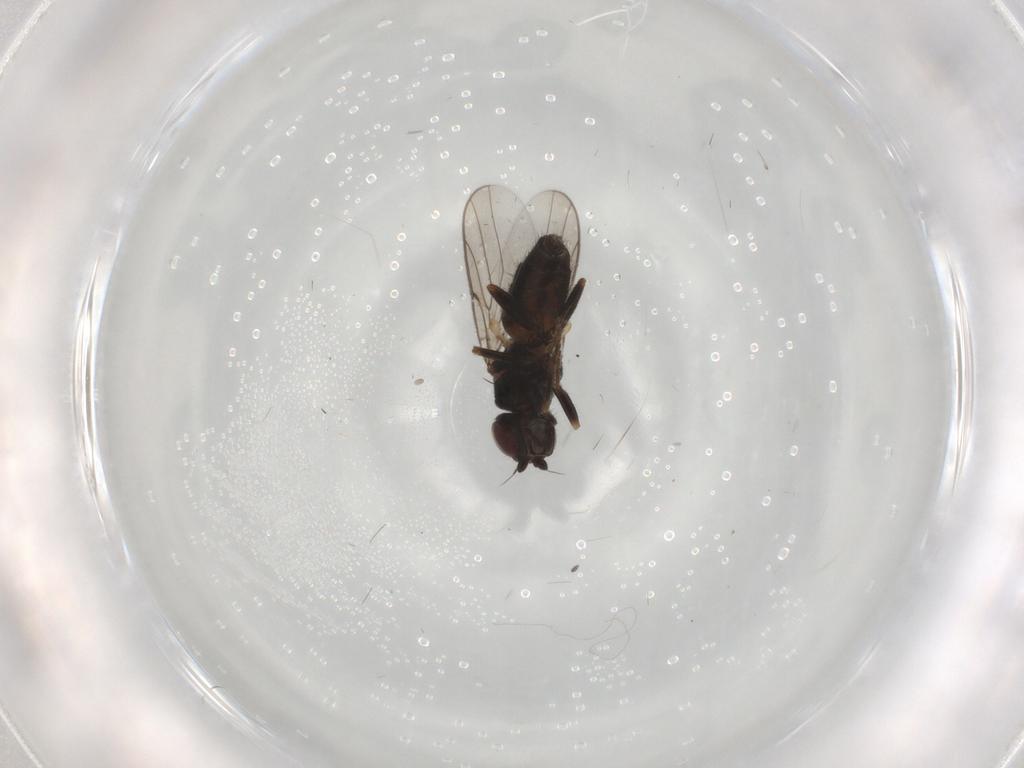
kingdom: Animalia
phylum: Arthropoda
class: Insecta
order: Diptera
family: Chloropidae
